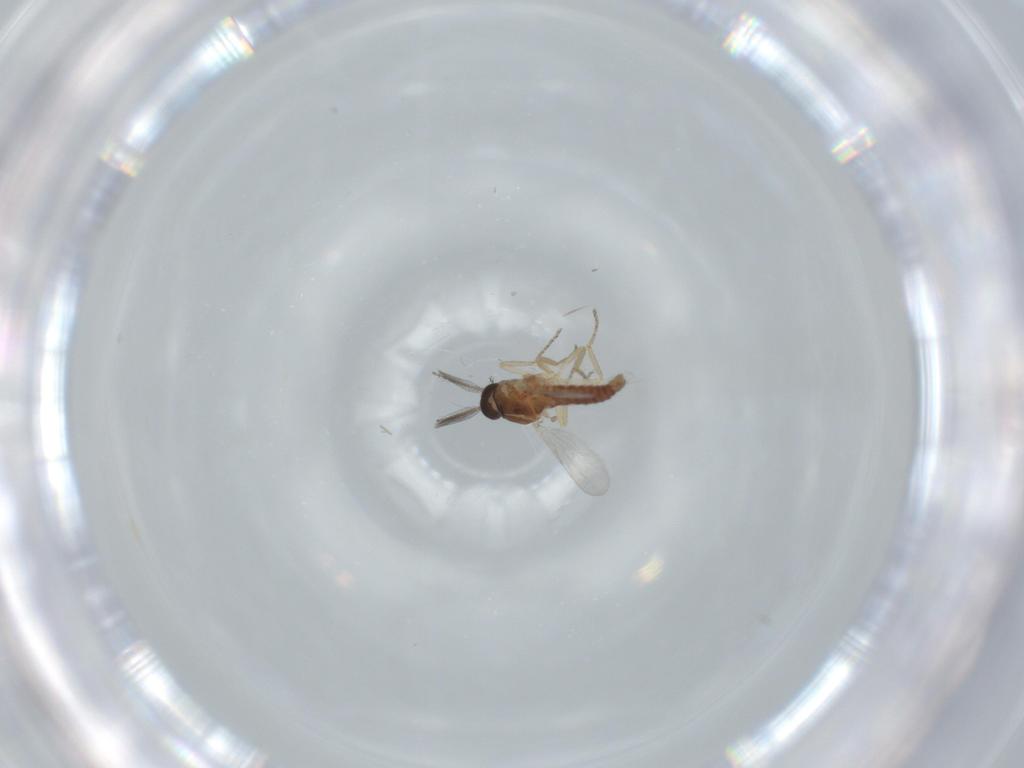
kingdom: Animalia
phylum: Arthropoda
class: Insecta
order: Diptera
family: Ceratopogonidae
